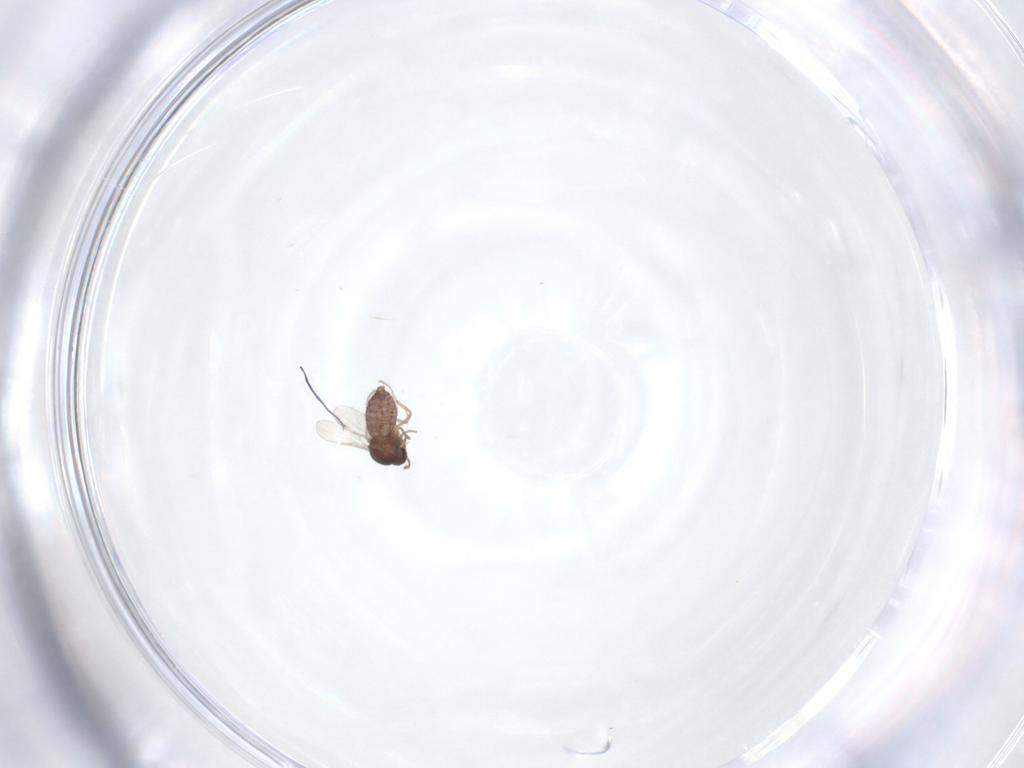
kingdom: Animalia
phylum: Arthropoda
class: Insecta
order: Diptera
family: Ceratopogonidae
